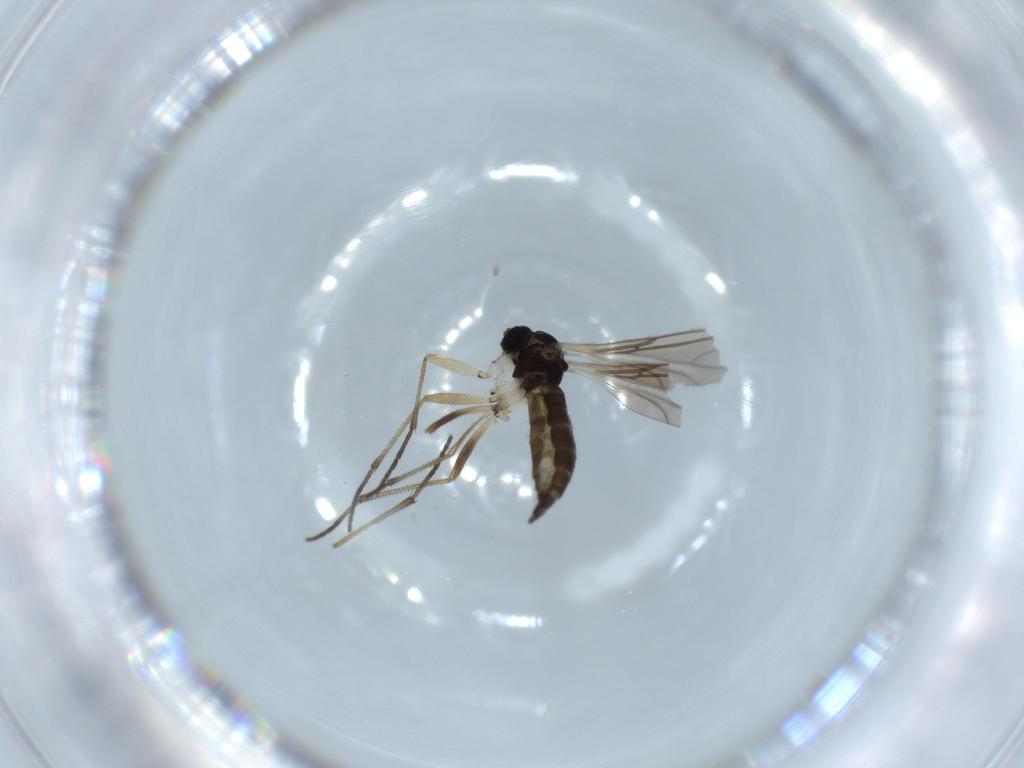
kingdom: Animalia
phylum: Arthropoda
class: Insecta
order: Diptera
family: Sciaridae
